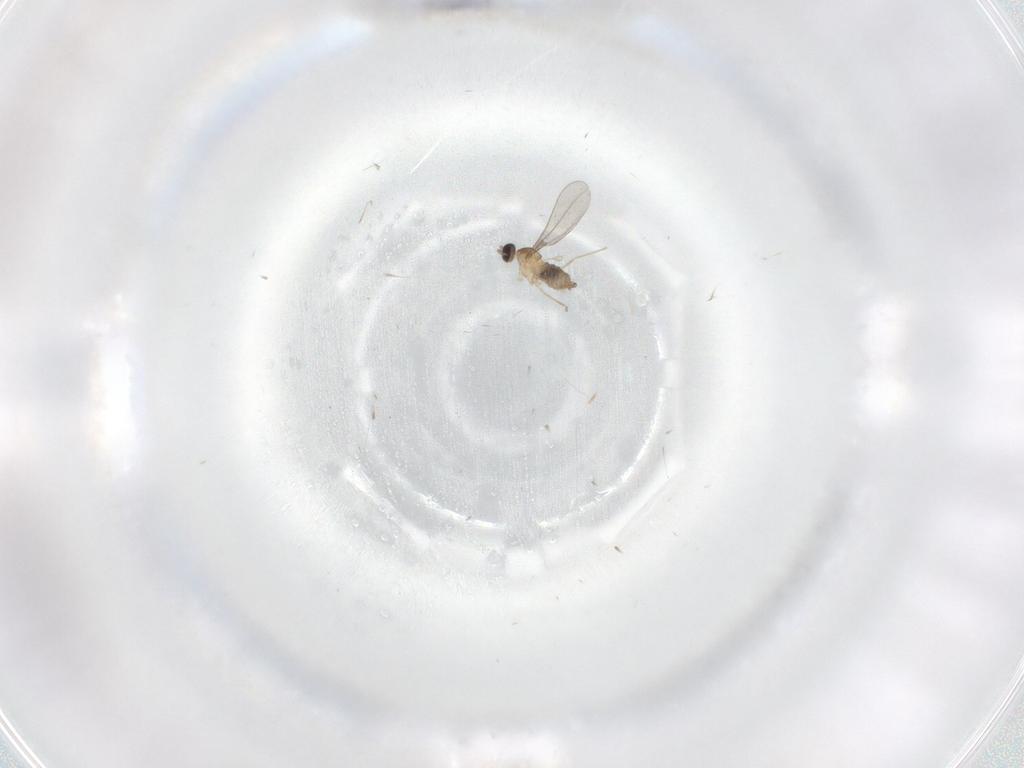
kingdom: Animalia
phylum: Arthropoda
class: Insecta
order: Diptera
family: Cecidomyiidae
